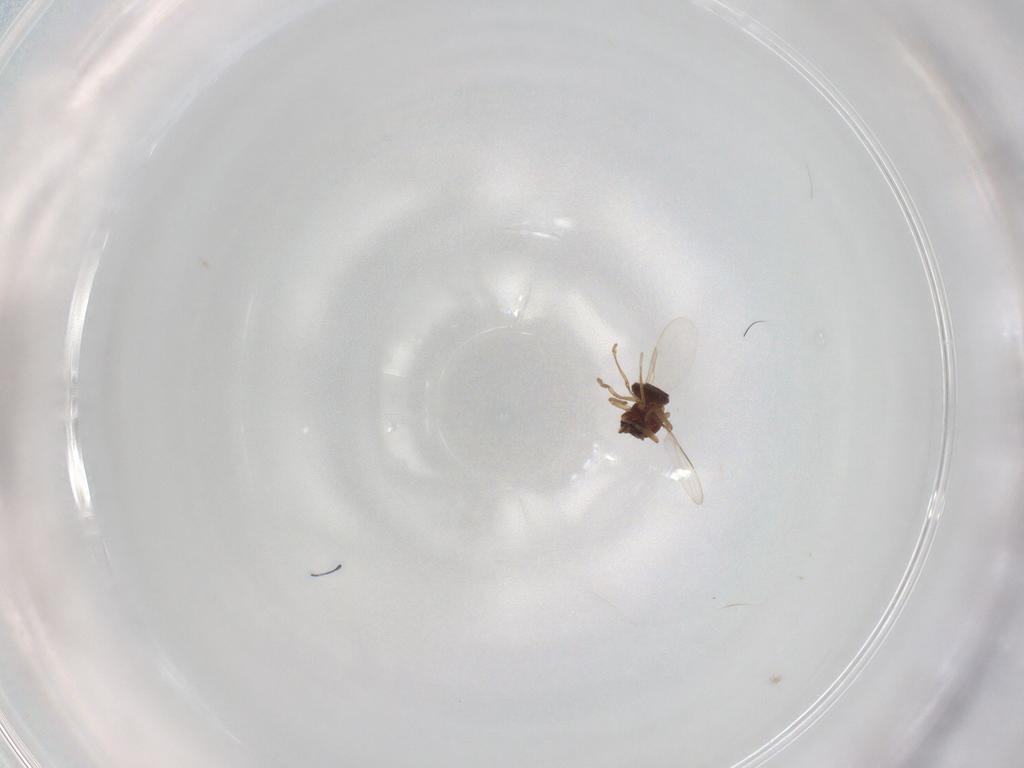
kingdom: Animalia
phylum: Arthropoda
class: Insecta
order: Diptera
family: Ceratopogonidae
